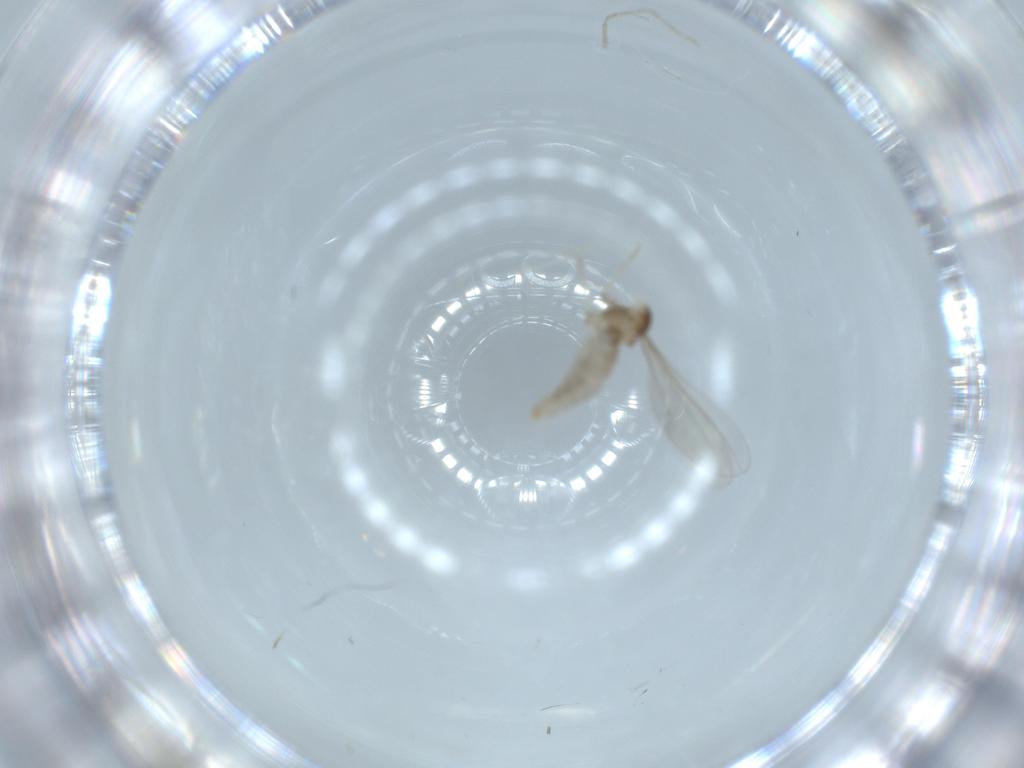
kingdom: Animalia
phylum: Arthropoda
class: Insecta
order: Diptera
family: Cecidomyiidae
